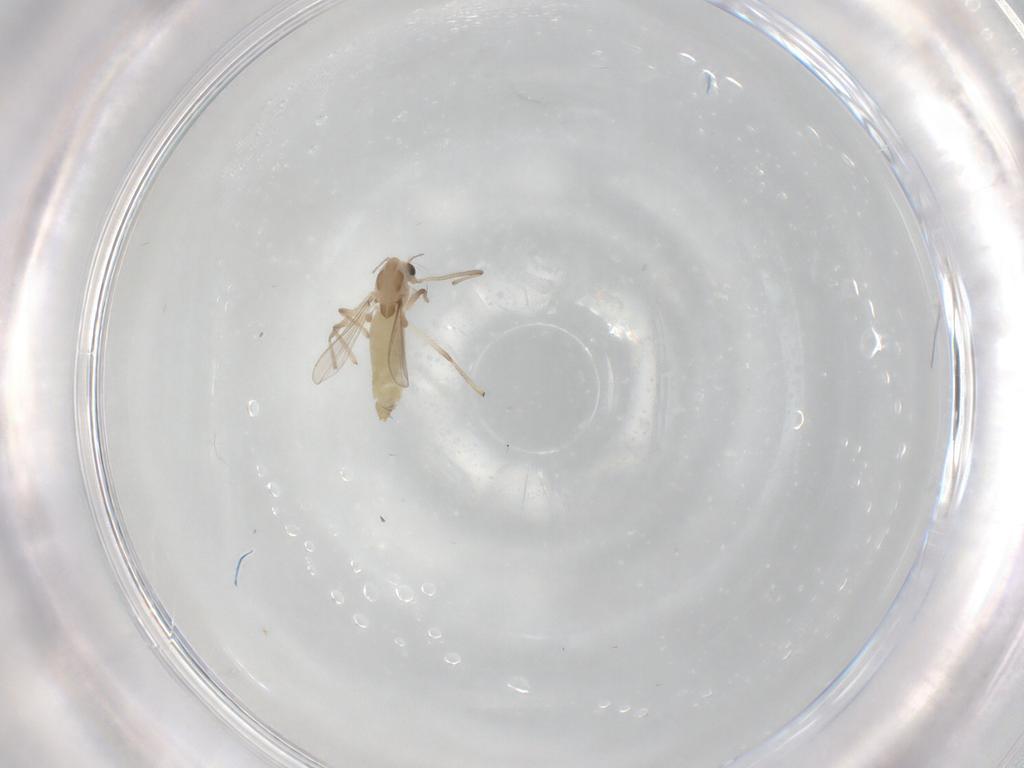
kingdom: Animalia
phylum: Arthropoda
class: Insecta
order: Diptera
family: Chironomidae
